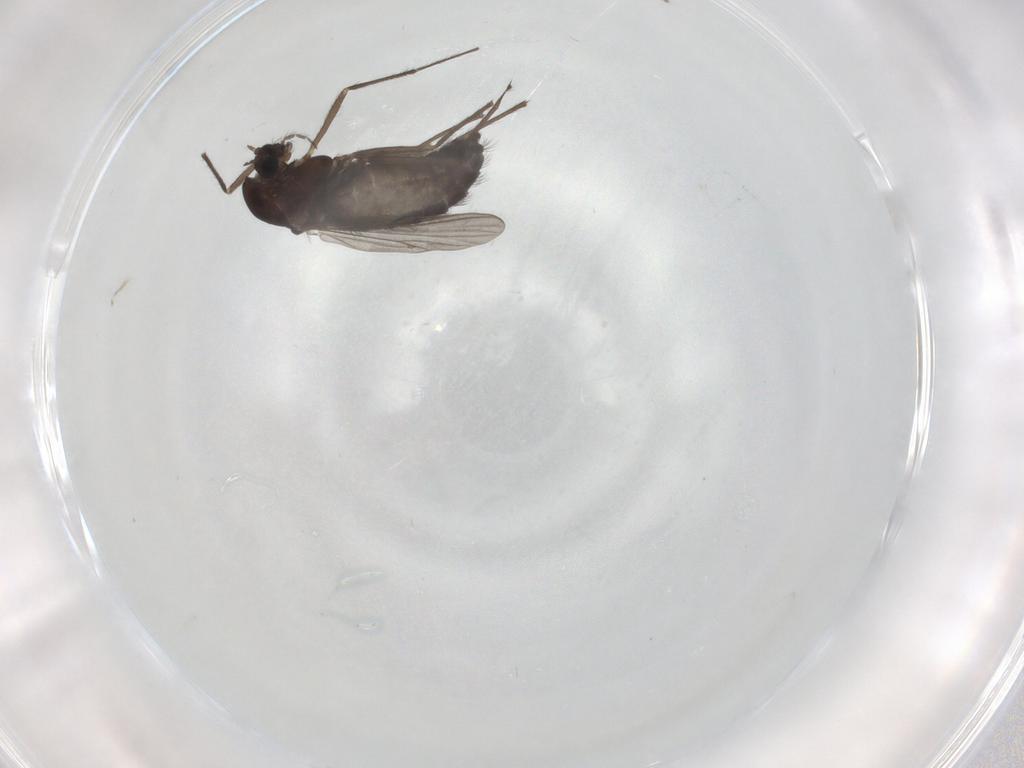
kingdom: Animalia
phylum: Arthropoda
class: Insecta
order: Diptera
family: Chironomidae
